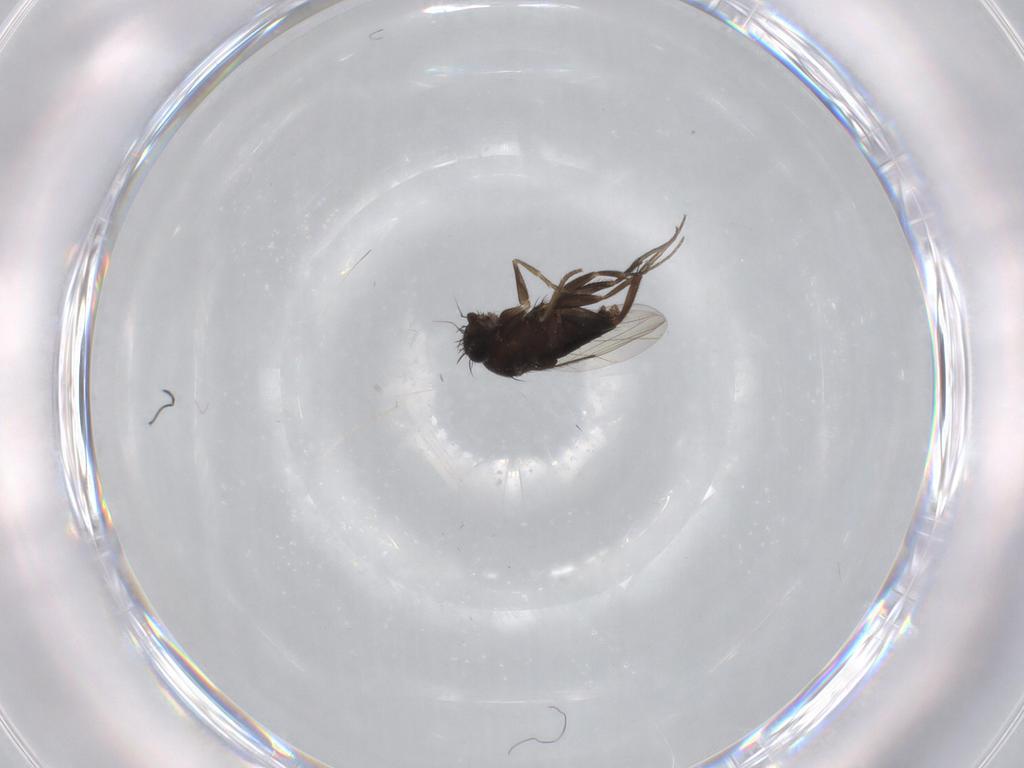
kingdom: Animalia
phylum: Arthropoda
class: Insecta
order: Diptera
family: Phoridae
